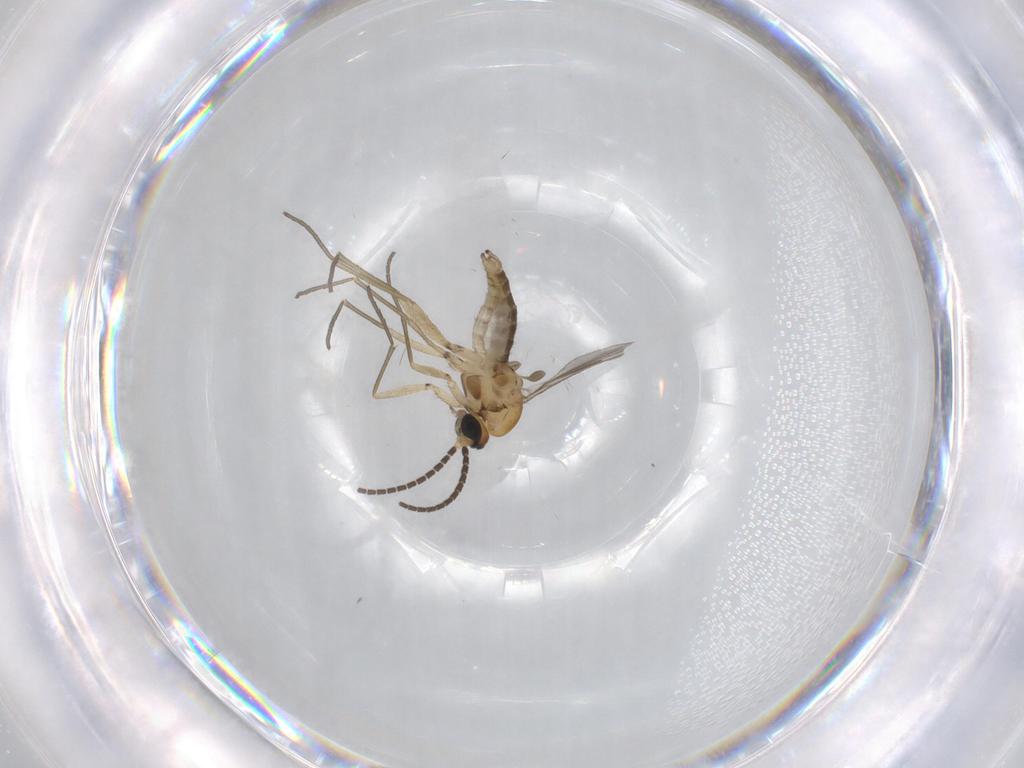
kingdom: Animalia
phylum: Arthropoda
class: Insecta
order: Diptera
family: Sciaridae
